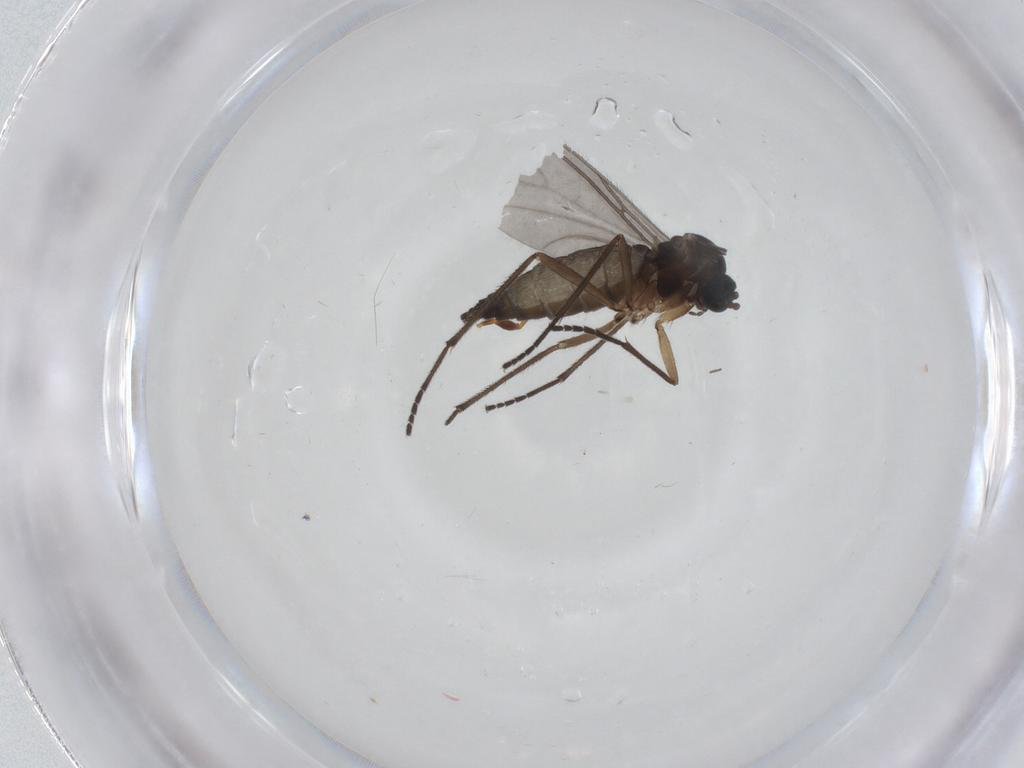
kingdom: Animalia
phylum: Arthropoda
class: Insecta
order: Diptera
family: Sciaridae
